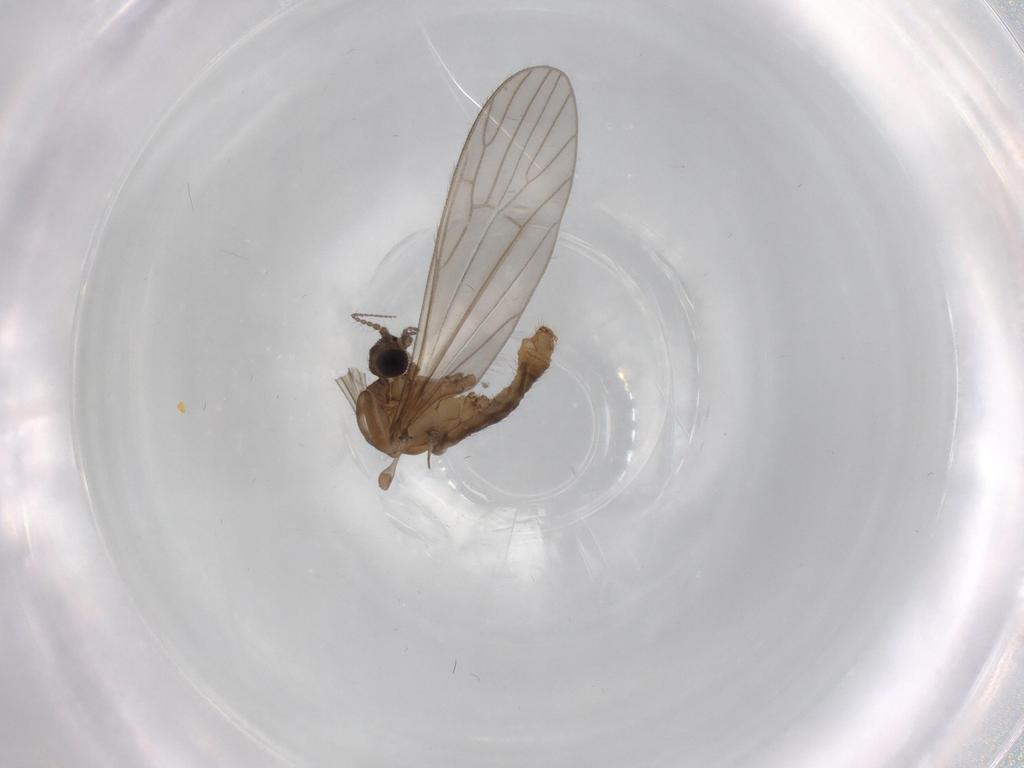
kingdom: Animalia
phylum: Arthropoda
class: Insecta
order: Diptera
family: Limoniidae
